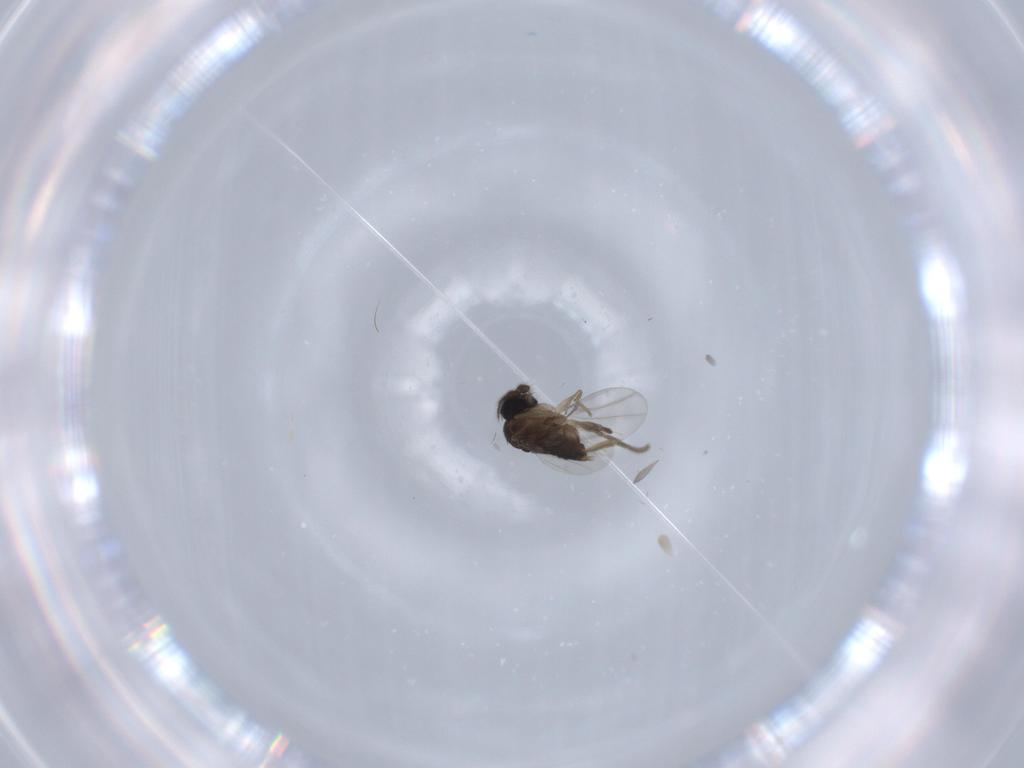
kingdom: Animalia
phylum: Arthropoda
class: Insecta
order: Diptera
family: Phoridae
